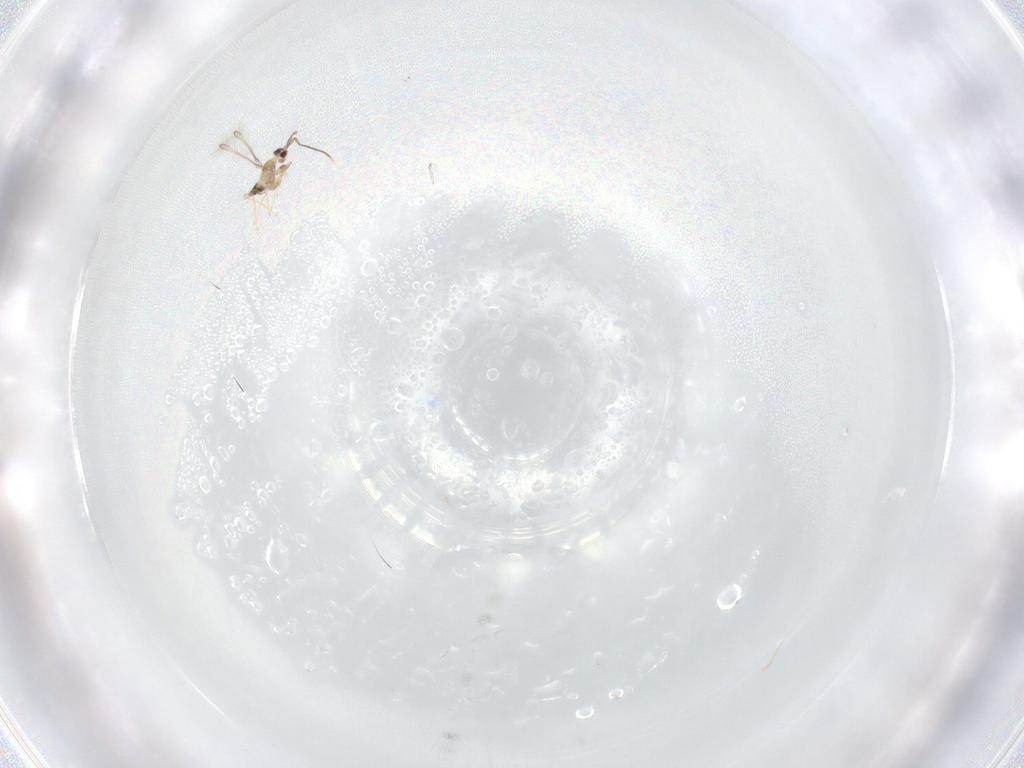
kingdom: Animalia
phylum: Arthropoda
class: Insecta
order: Hymenoptera
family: Mymaridae
